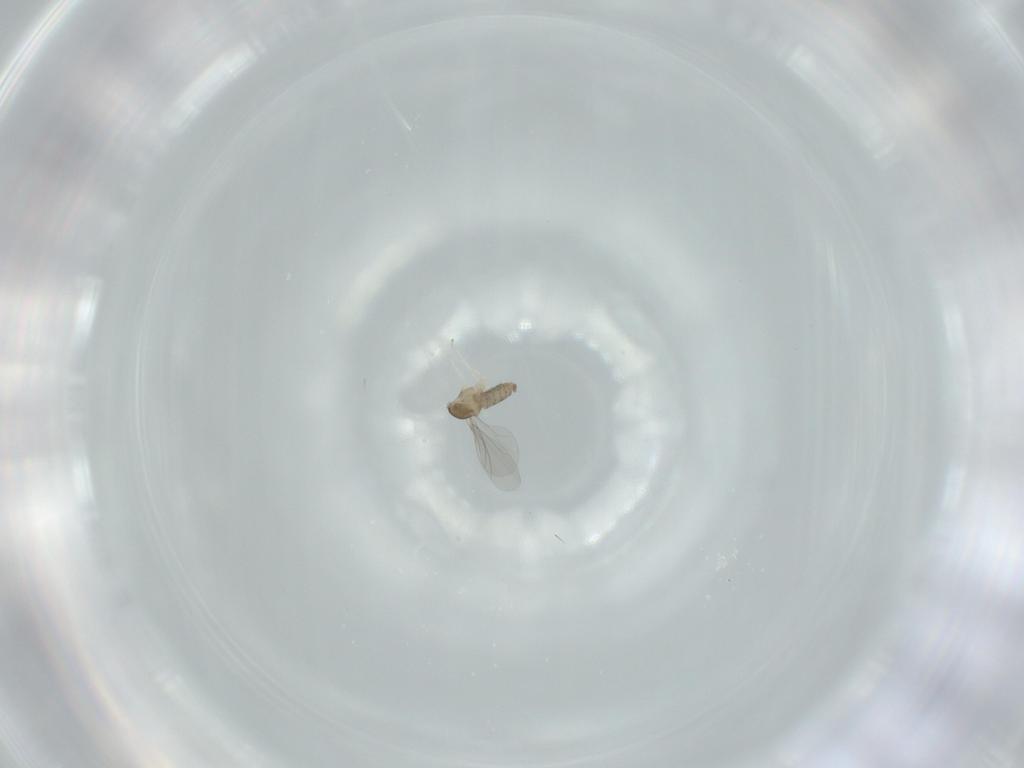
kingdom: Animalia
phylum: Arthropoda
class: Insecta
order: Diptera
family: Cecidomyiidae
